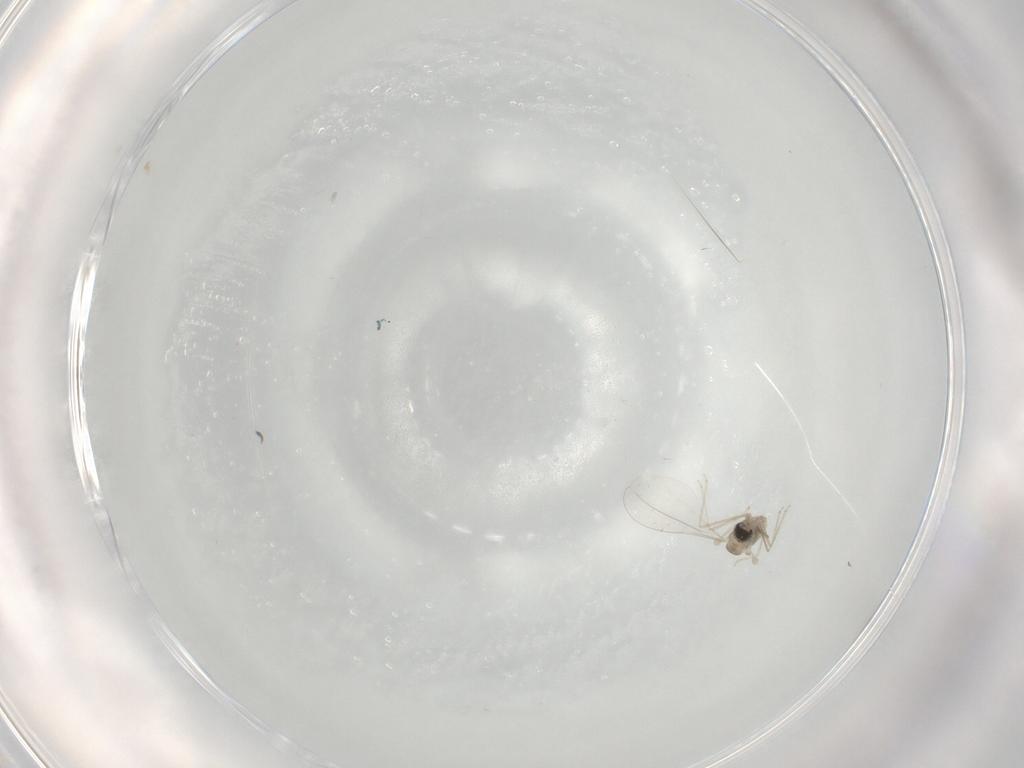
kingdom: Animalia
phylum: Arthropoda
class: Insecta
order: Diptera
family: Cecidomyiidae
